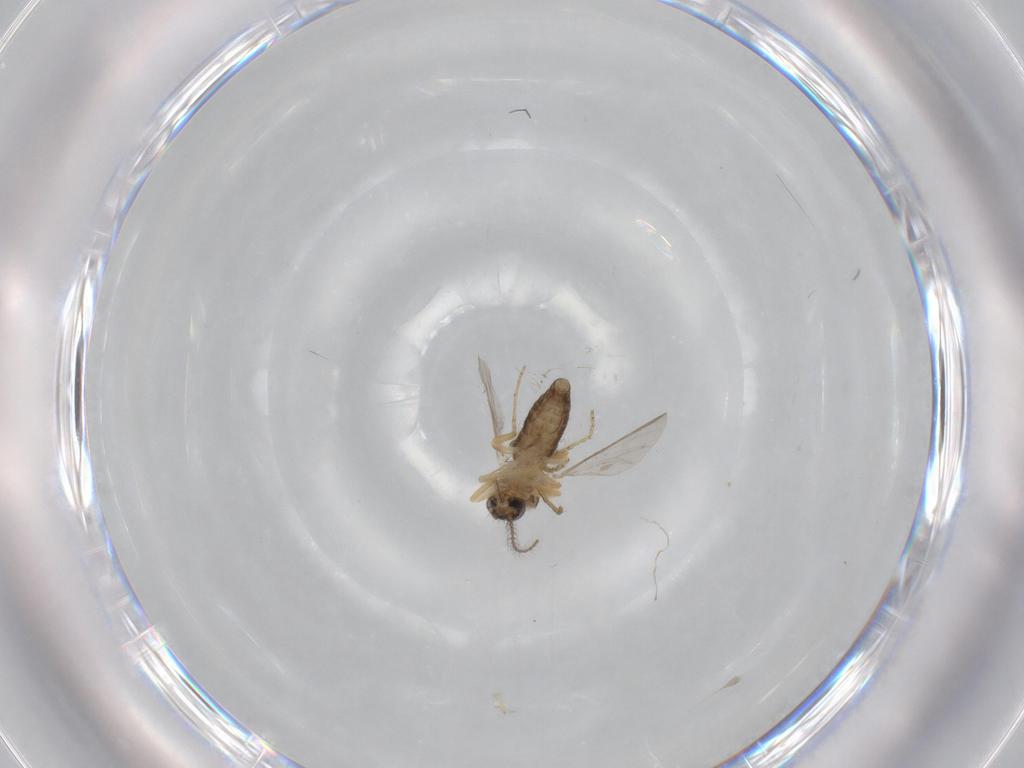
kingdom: Animalia
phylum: Arthropoda
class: Insecta
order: Diptera
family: Ceratopogonidae
